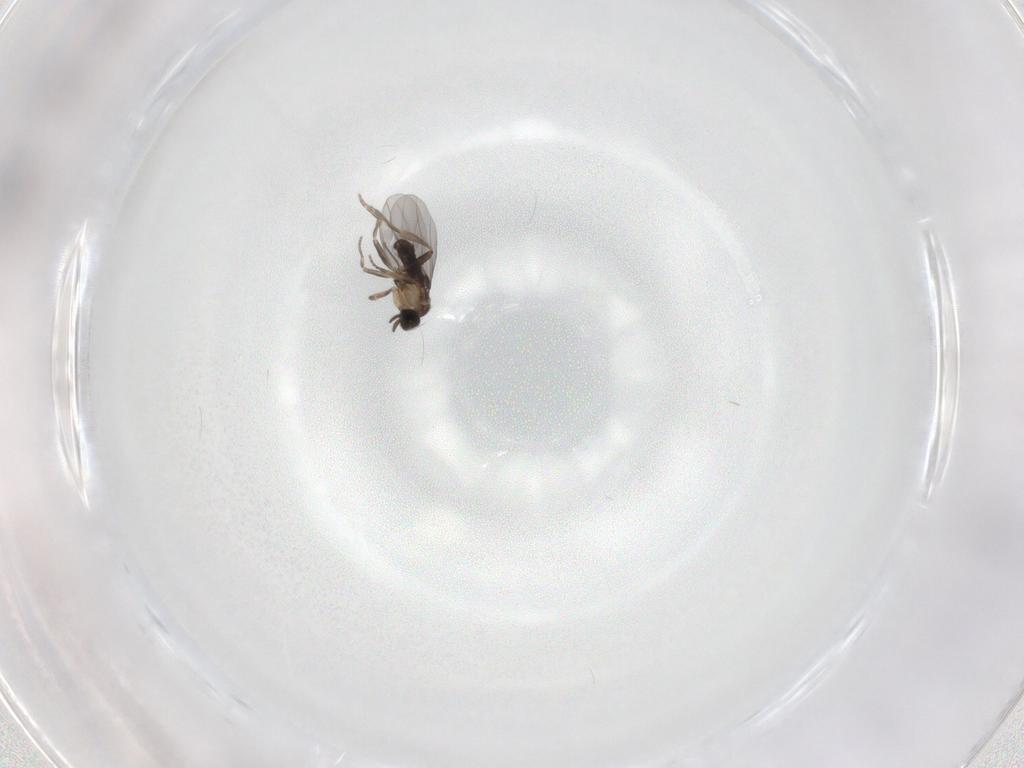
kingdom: Animalia
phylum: Arthropoda
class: Insecta
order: Diptera
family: Phoridae
